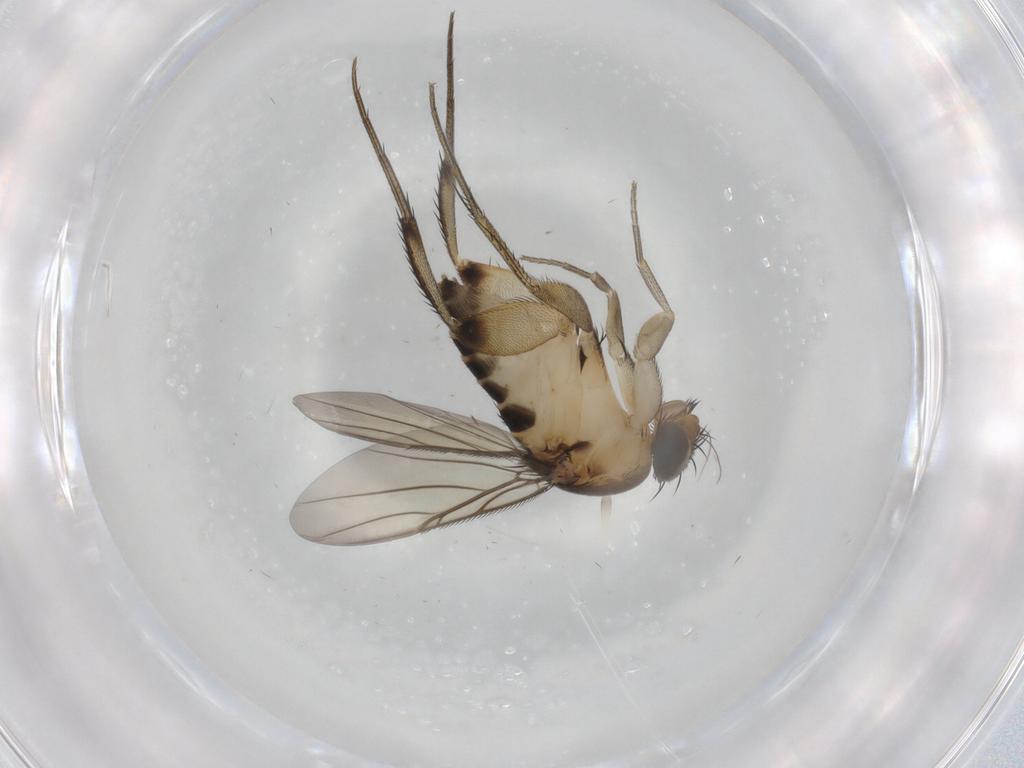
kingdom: Animalia
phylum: Arthropoda
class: Insecta
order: Diptera
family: Phoridae
